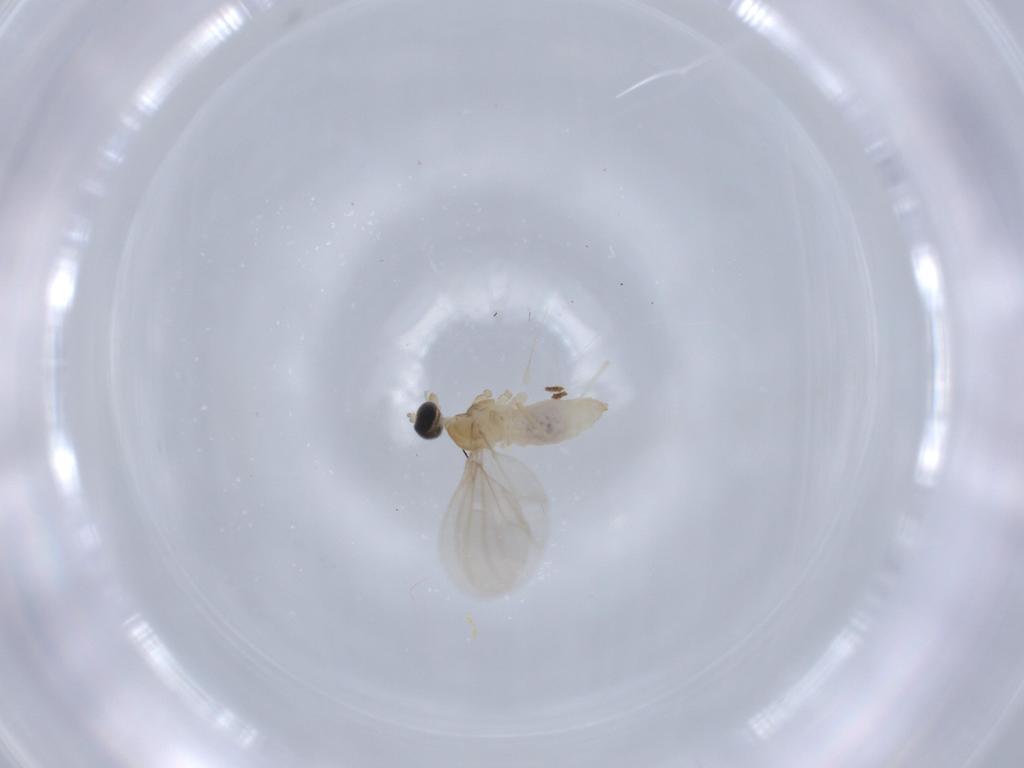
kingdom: Animalia
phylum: Arthropoda
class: Insecta
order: Diptera
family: Cecidomyiidae
